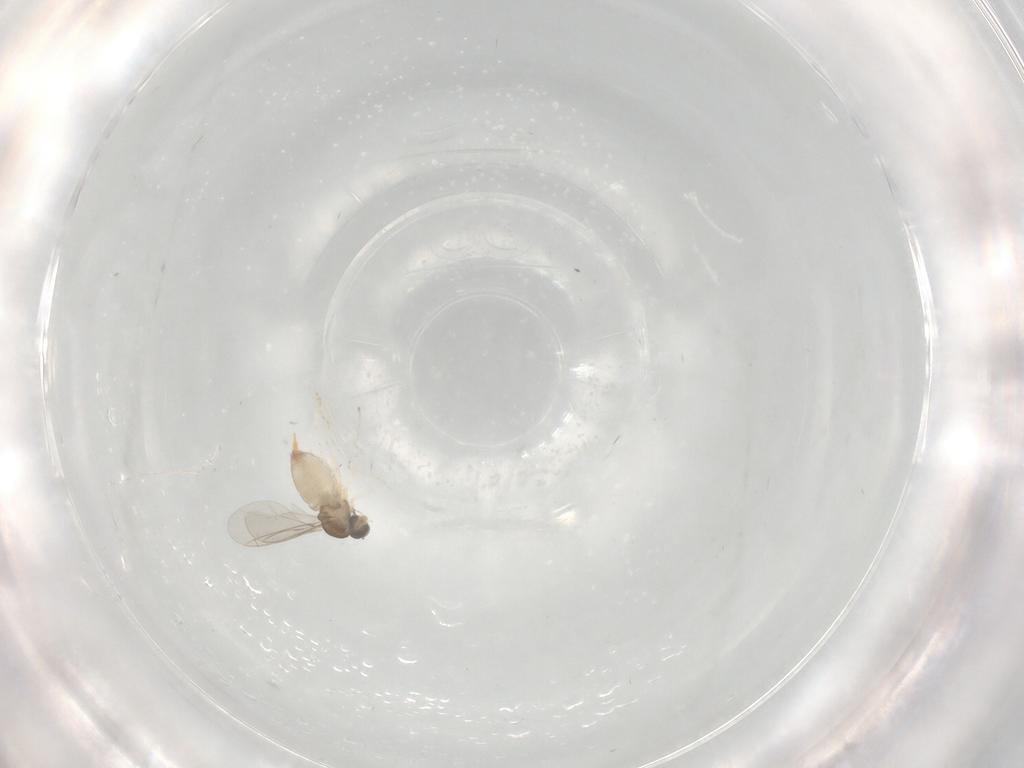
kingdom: Animalia
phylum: Arthropoda
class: Insecta
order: Diptera
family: Cecidomyiidae
